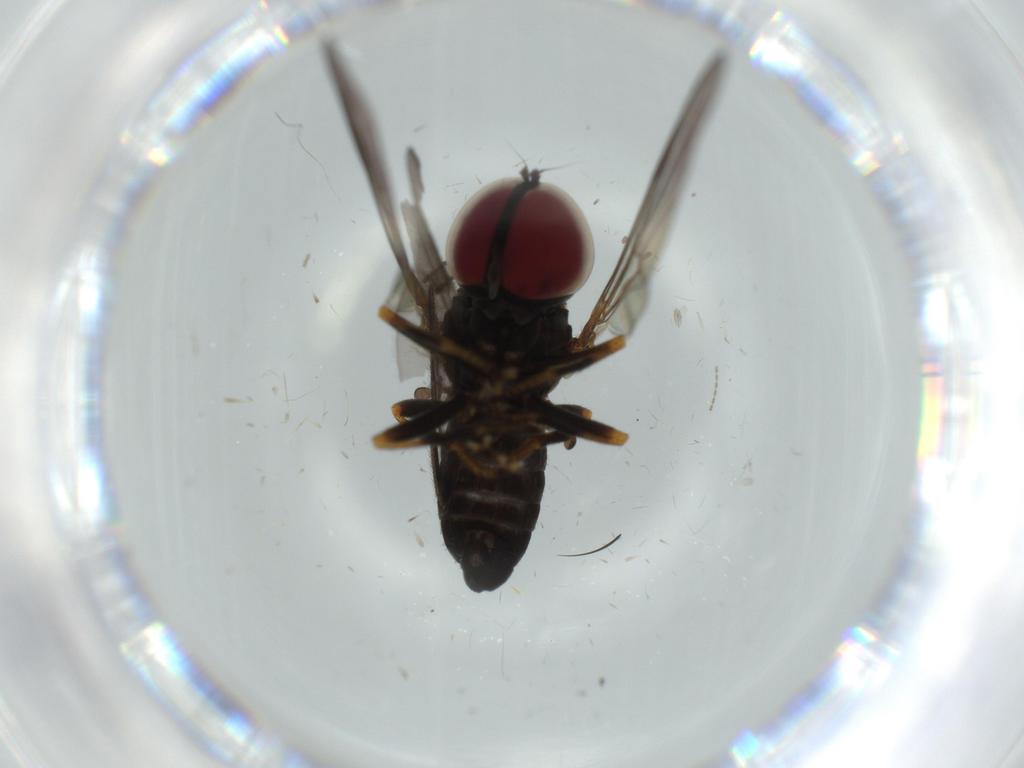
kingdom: Animalia
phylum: Arthropoda
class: Insecta
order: Diptera
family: Pipunculidae
